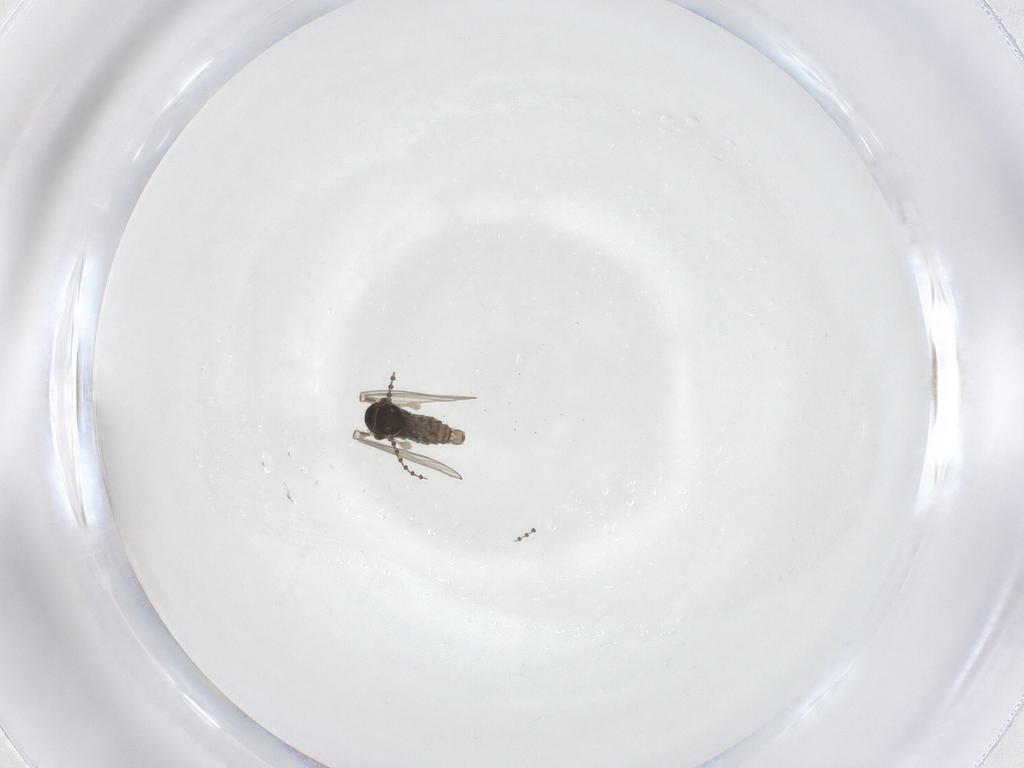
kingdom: Animalia
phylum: Arthropoda
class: Insecta
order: Diptera
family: Psychodidae
